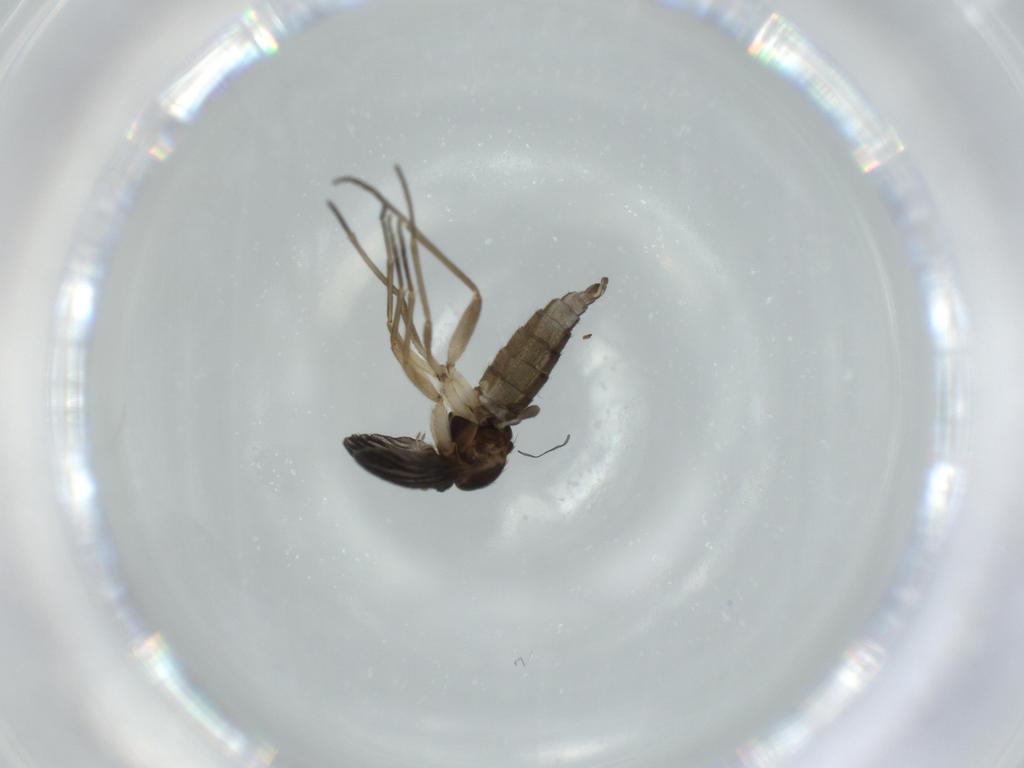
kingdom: Animalia
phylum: Arthropoda
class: Insecta
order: Diptera
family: Sciaridae
